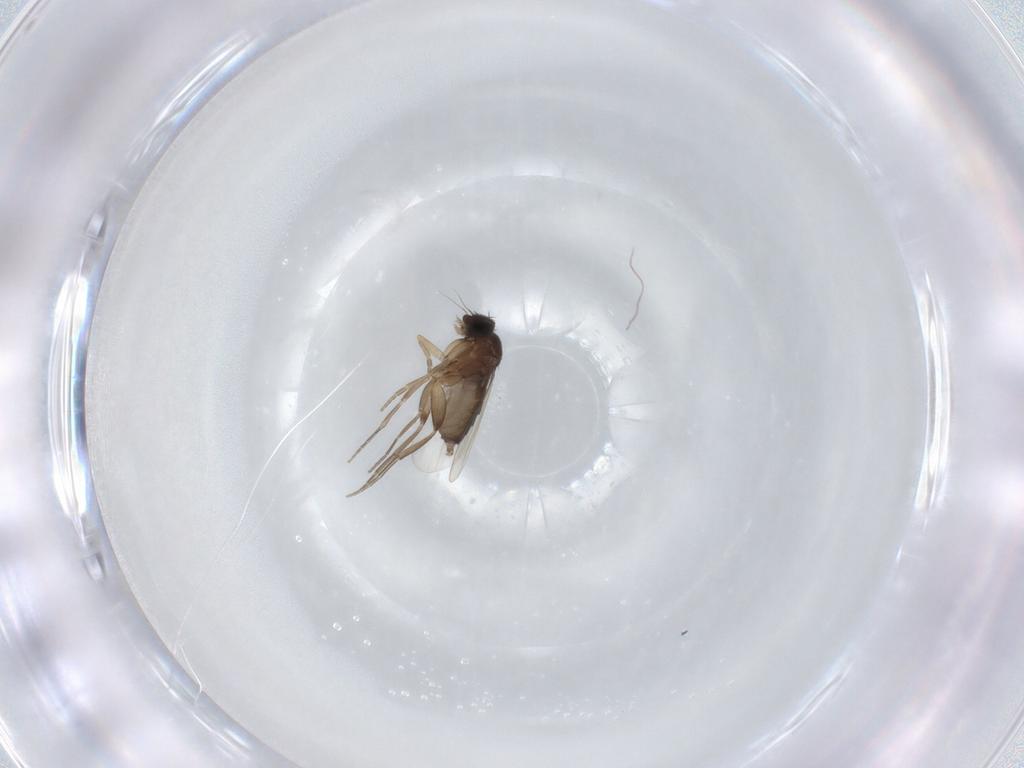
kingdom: Animalia
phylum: Arthropoda
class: Insecta
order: Diptera
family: Phoridae
